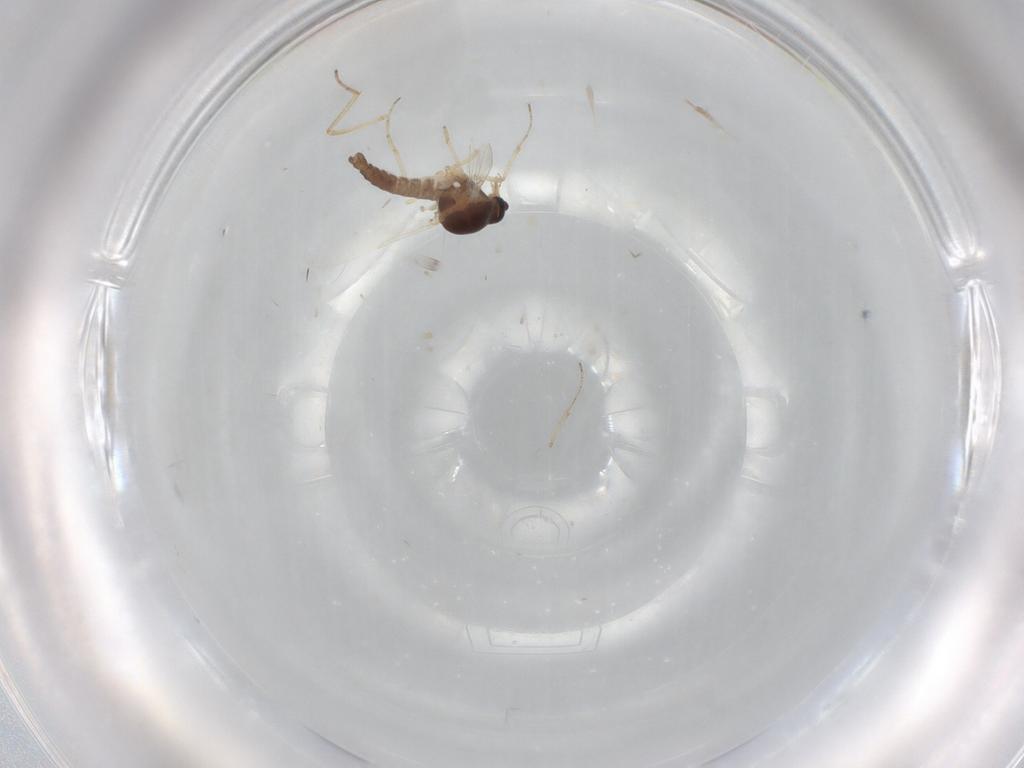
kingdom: Animalia
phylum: Arthropoda
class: Insecta
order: Diptera
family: Ceratopogonidae
